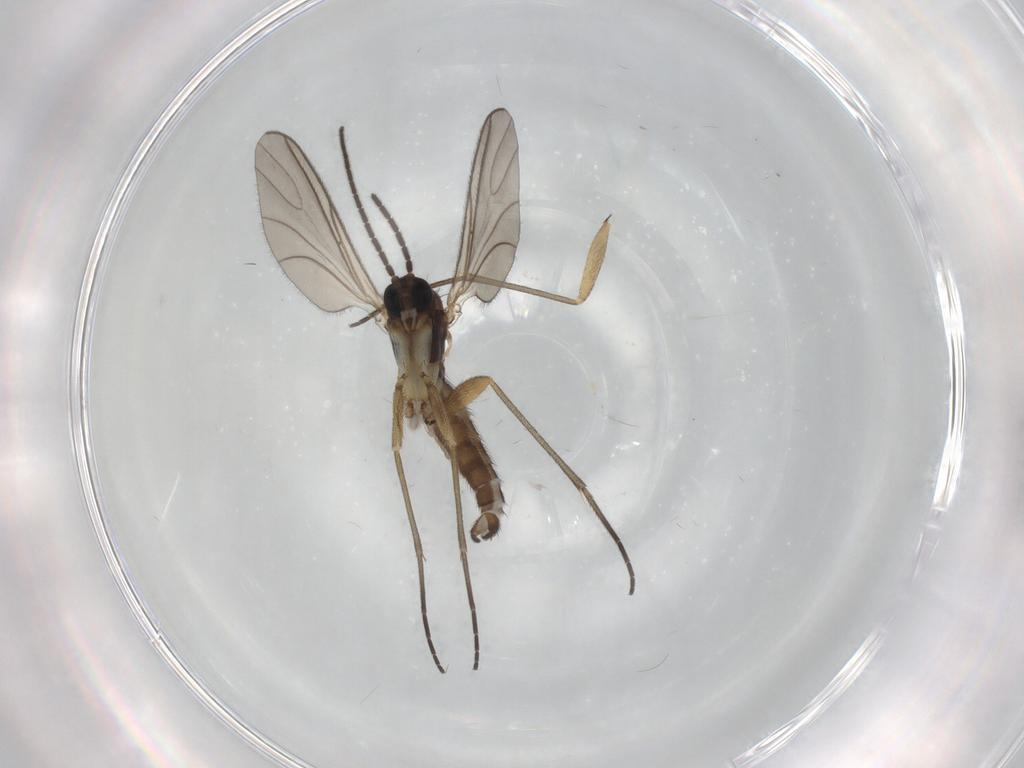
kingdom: Animalia
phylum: Arthropoda
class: Insecta
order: Diptera
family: Sciaridae
